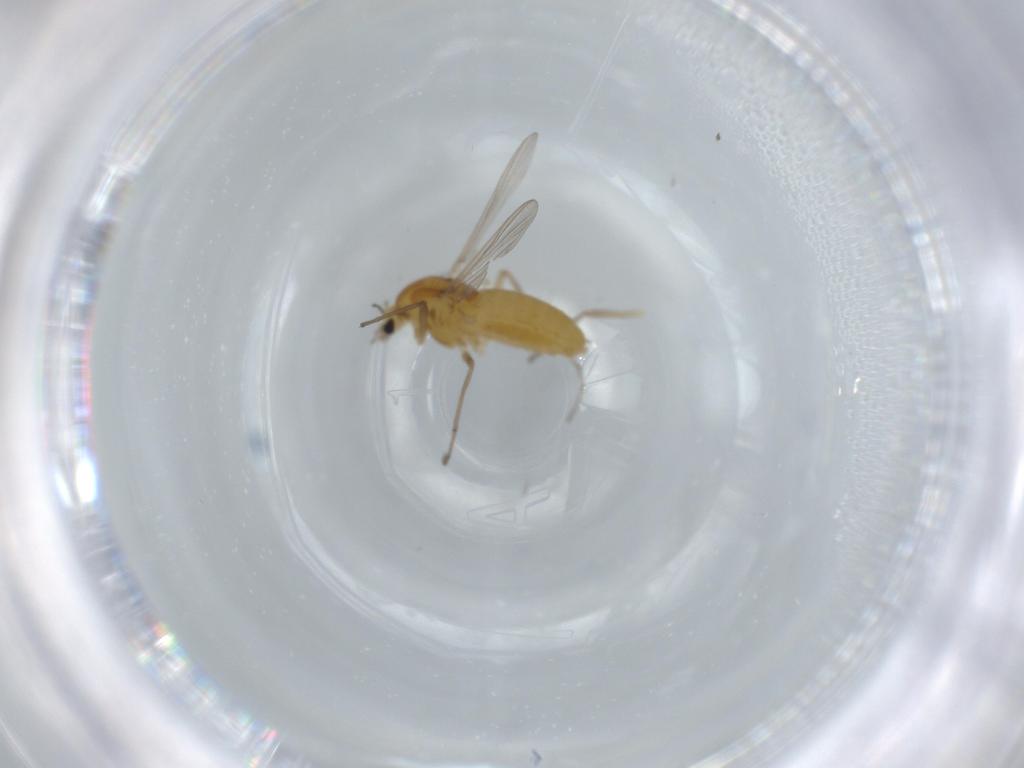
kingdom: Animalia
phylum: Arthropoda
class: Insecta
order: Diptera
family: Chironomidae
